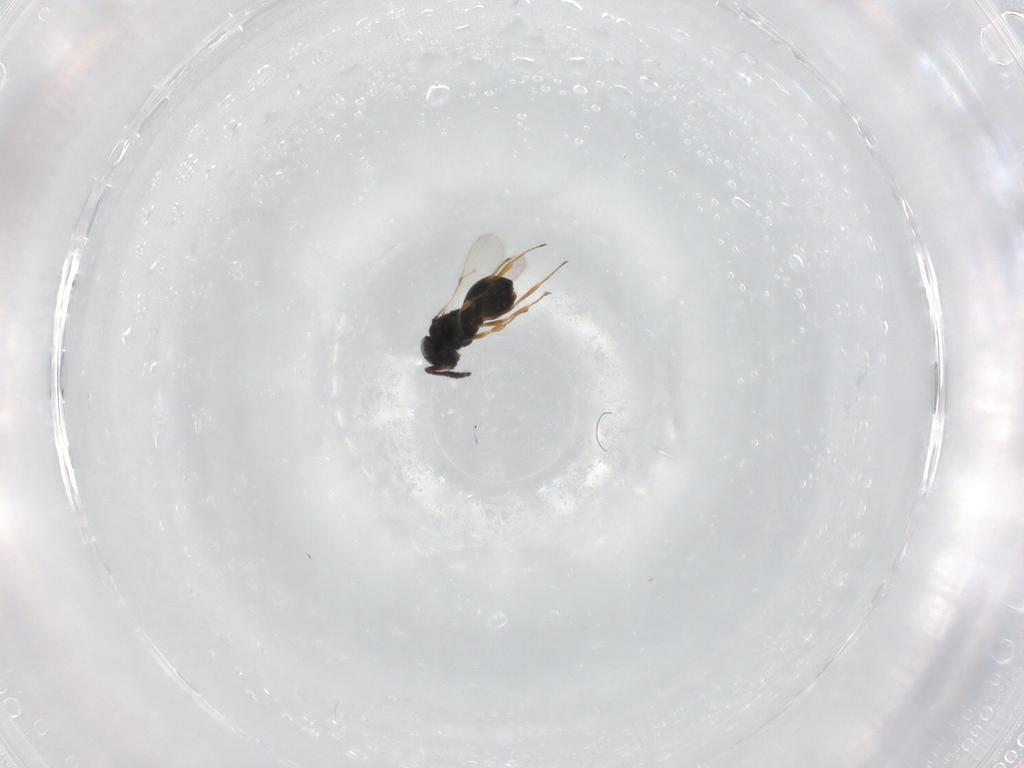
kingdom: Animalia
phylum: Arthropoda
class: Insecta
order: Hymenoptera
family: Scelionidae
